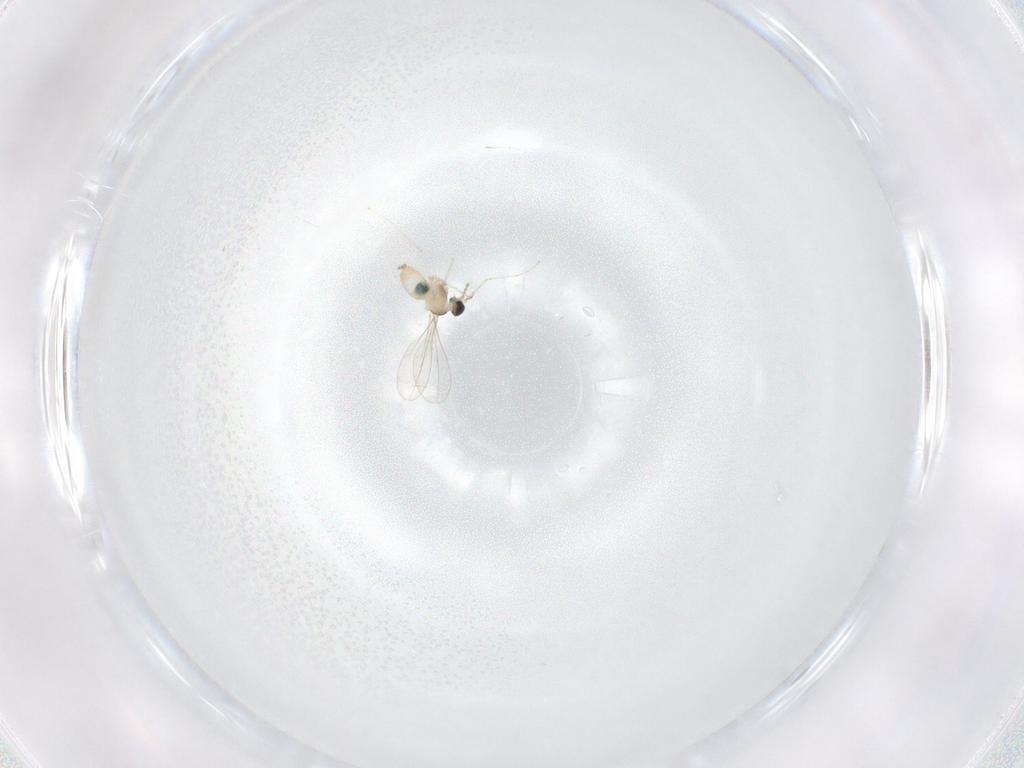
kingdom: Animalia
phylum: Arthropoda
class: Insecta
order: Diptera
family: Cecidomyiidae
